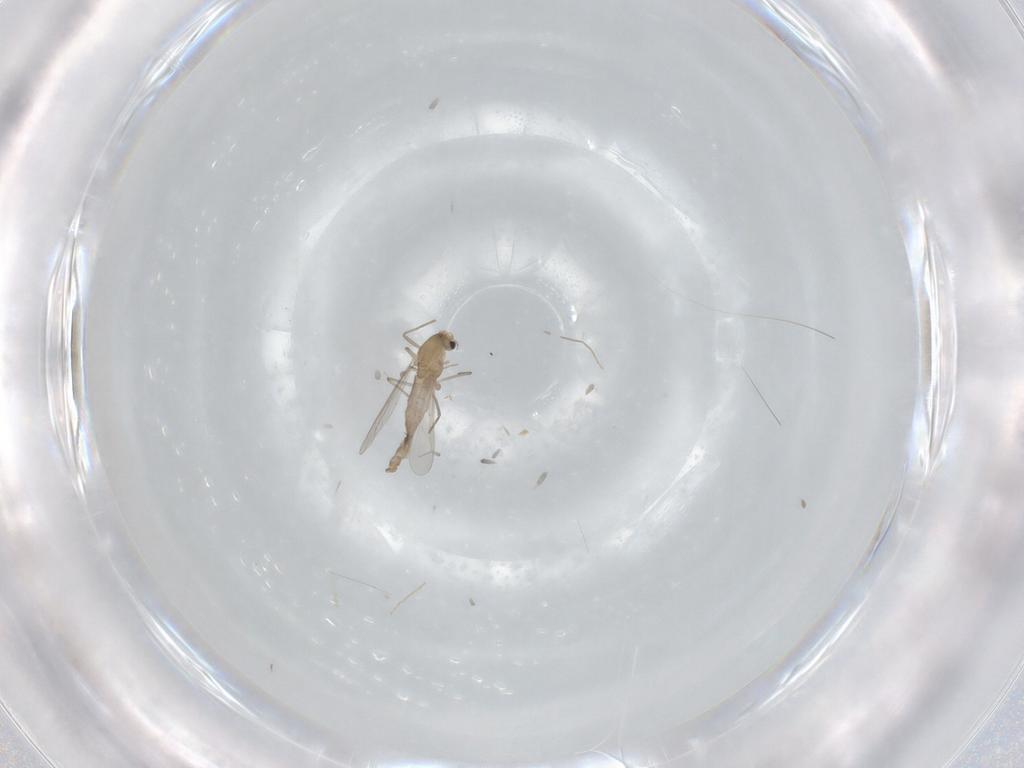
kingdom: Animalia
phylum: Arthropoda
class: Insecta
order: Diptera
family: Chironomidae
